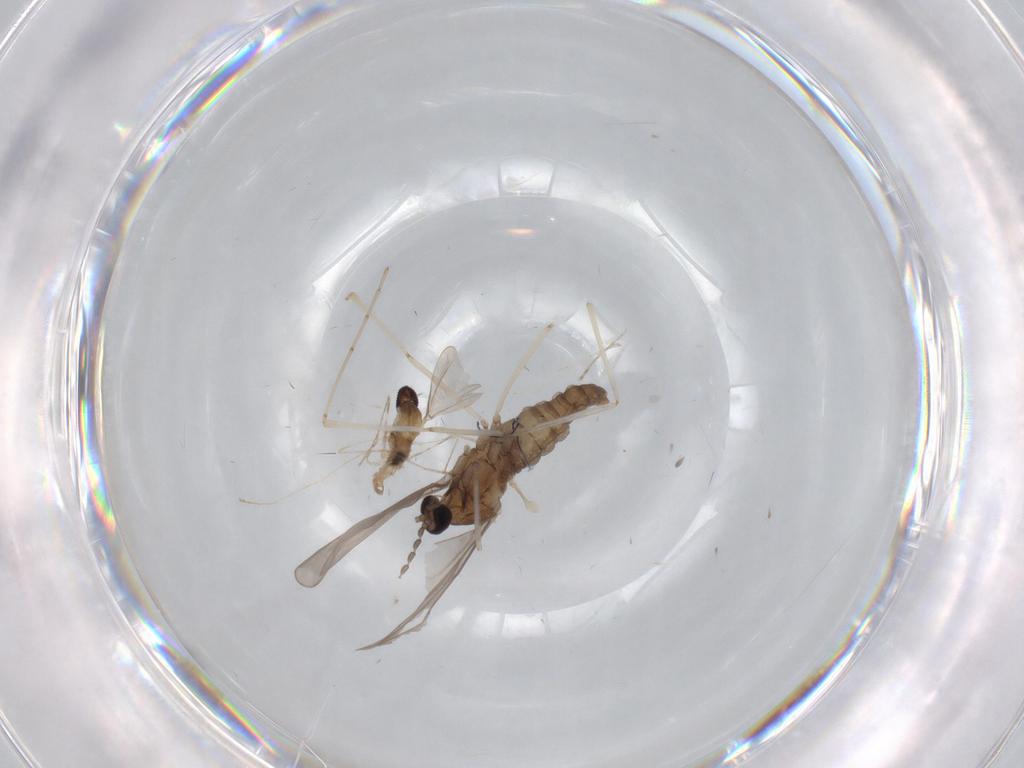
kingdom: Animalia
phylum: Arthropoda
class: Insecta
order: Diptera
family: Cecidomyiidae
